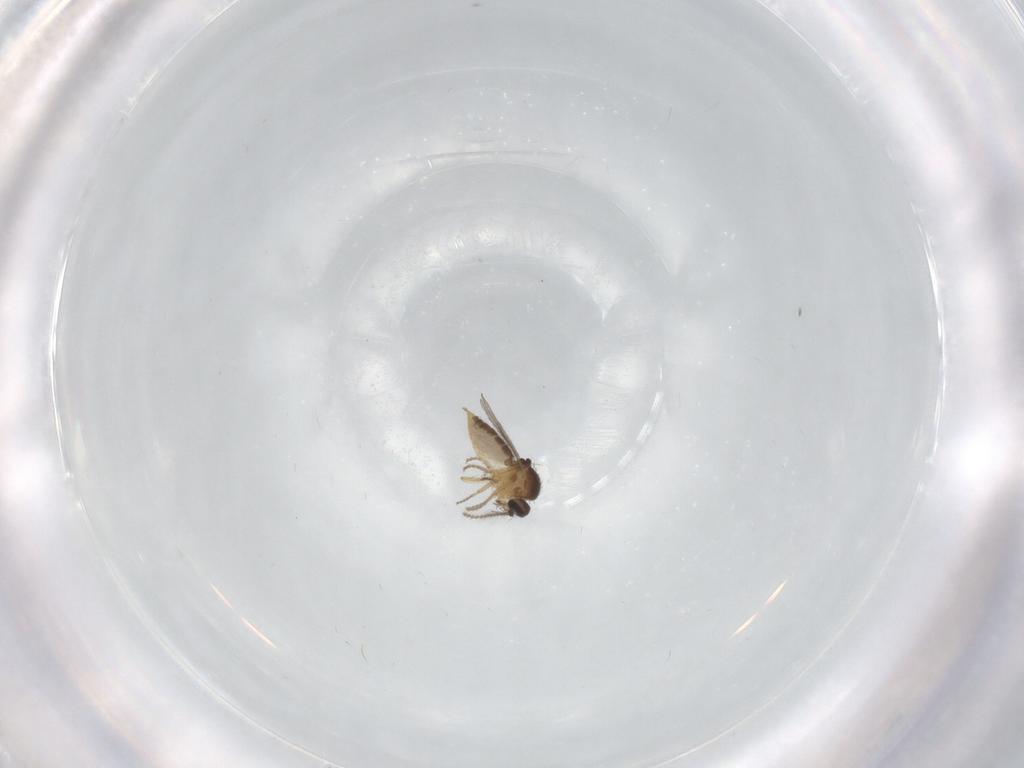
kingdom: Animalia
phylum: Arthropoda
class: Insecta
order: Diptera
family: Ceratopogonidae
